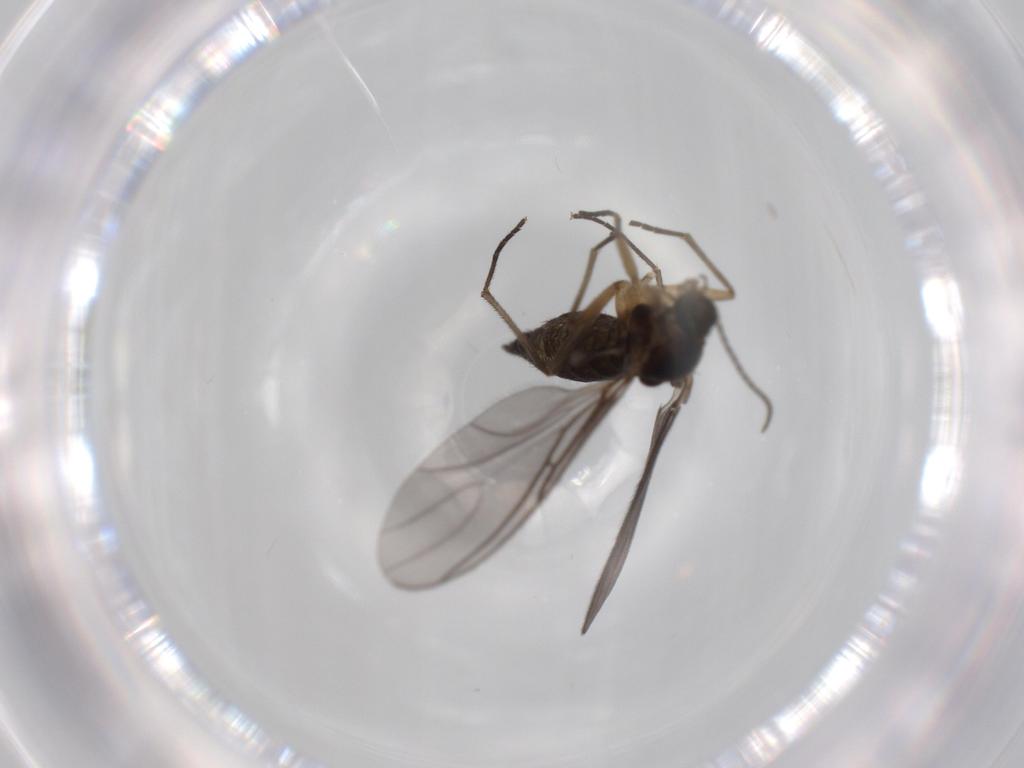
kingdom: Animalia
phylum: Arthropoda
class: Insecta
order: Diptera
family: Sciaridae
